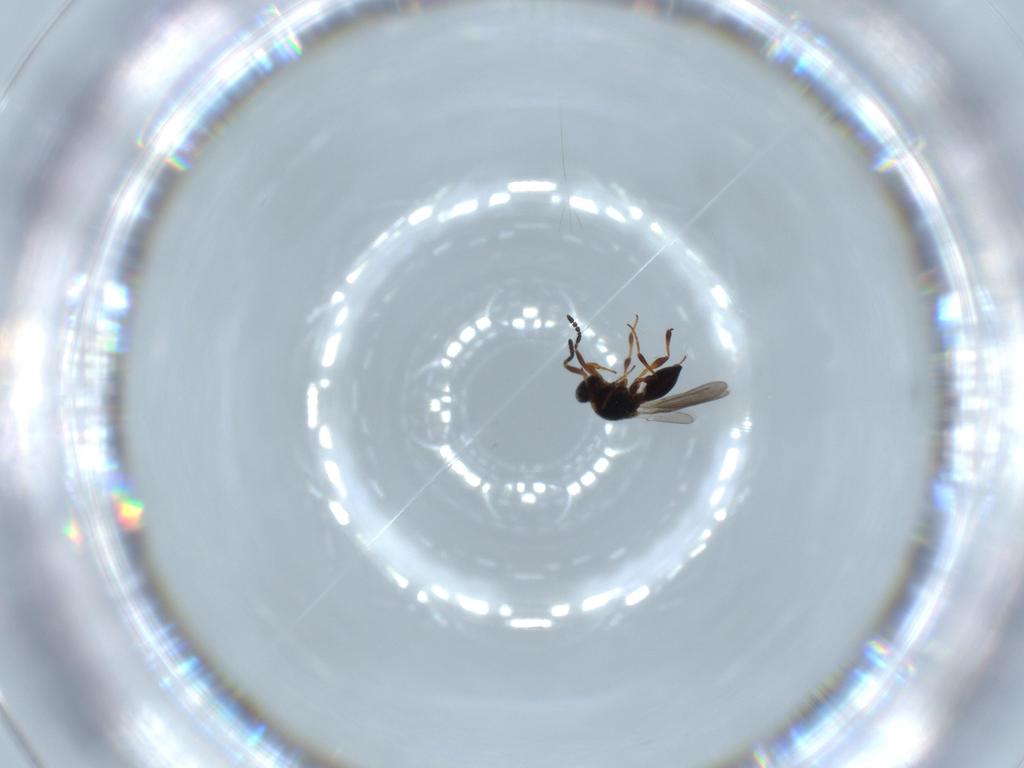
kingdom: Animalia
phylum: Arthropoda
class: Insecta
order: Hymenoptera
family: Platygastridae
